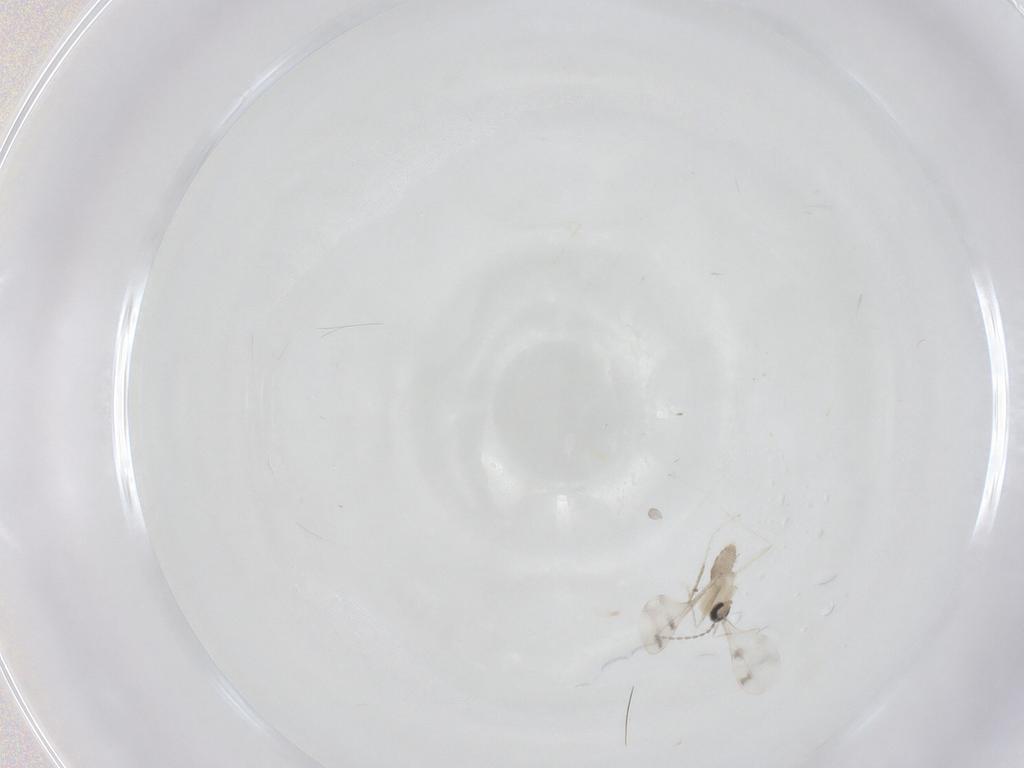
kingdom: Animalia
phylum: Arthropoda
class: Insecta
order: Diptera
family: Cecidomyiidae
